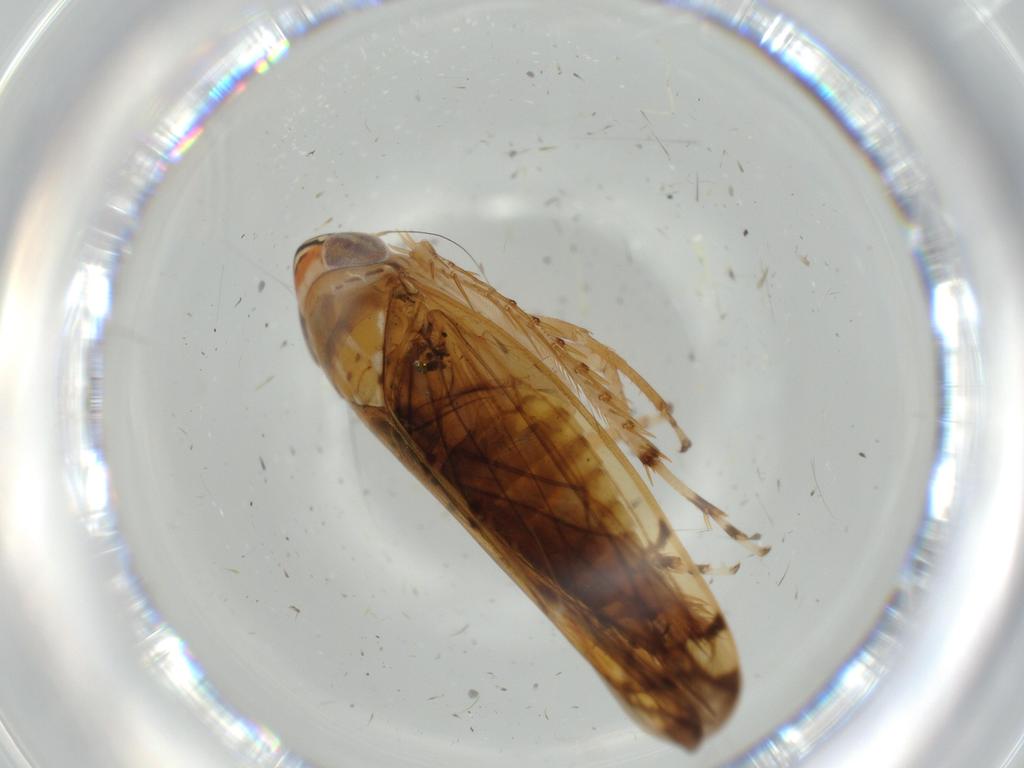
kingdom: Animalia
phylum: Arthropoda
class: Insecta
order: Hemiptera
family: Cicadellidae
